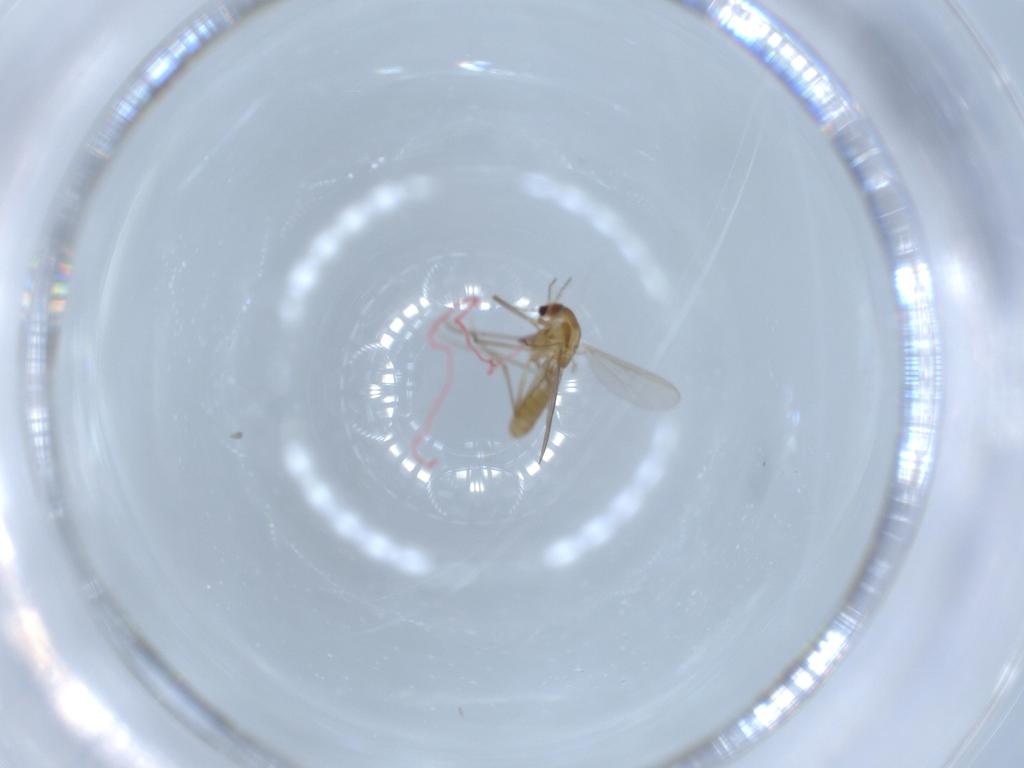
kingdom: Animalia
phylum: Arthropoda
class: Insecta
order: Diptera
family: Chironomidae
